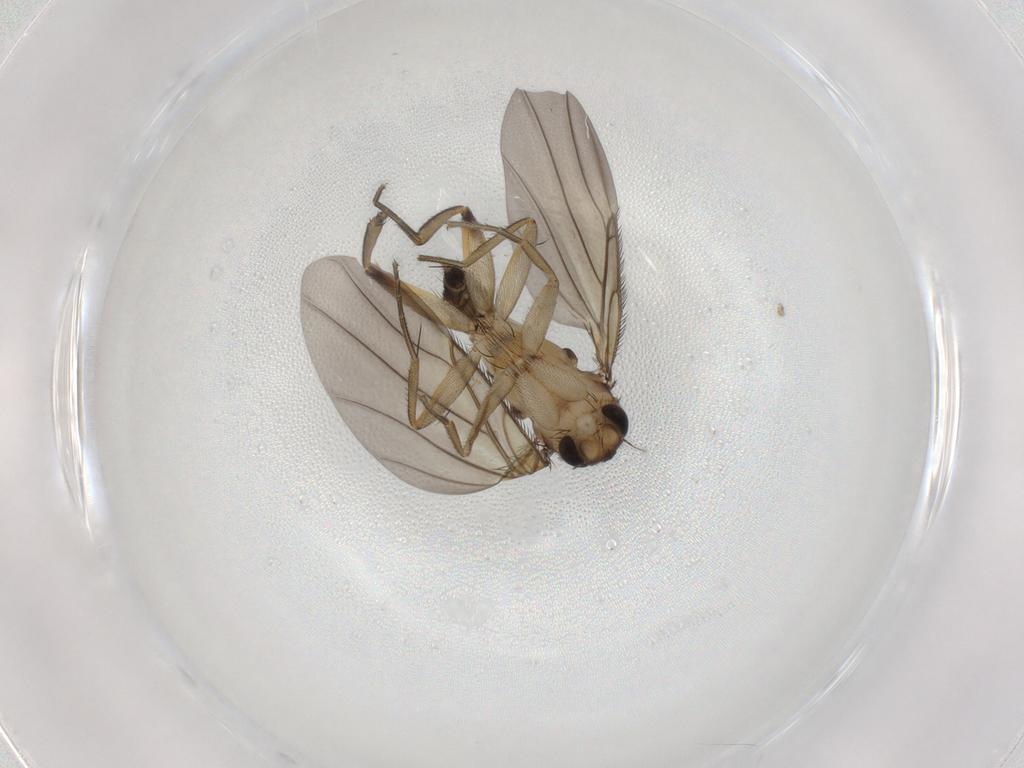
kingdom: Animalia
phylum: Arthropoda
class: Insecta
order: Diptera
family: Phoridae
